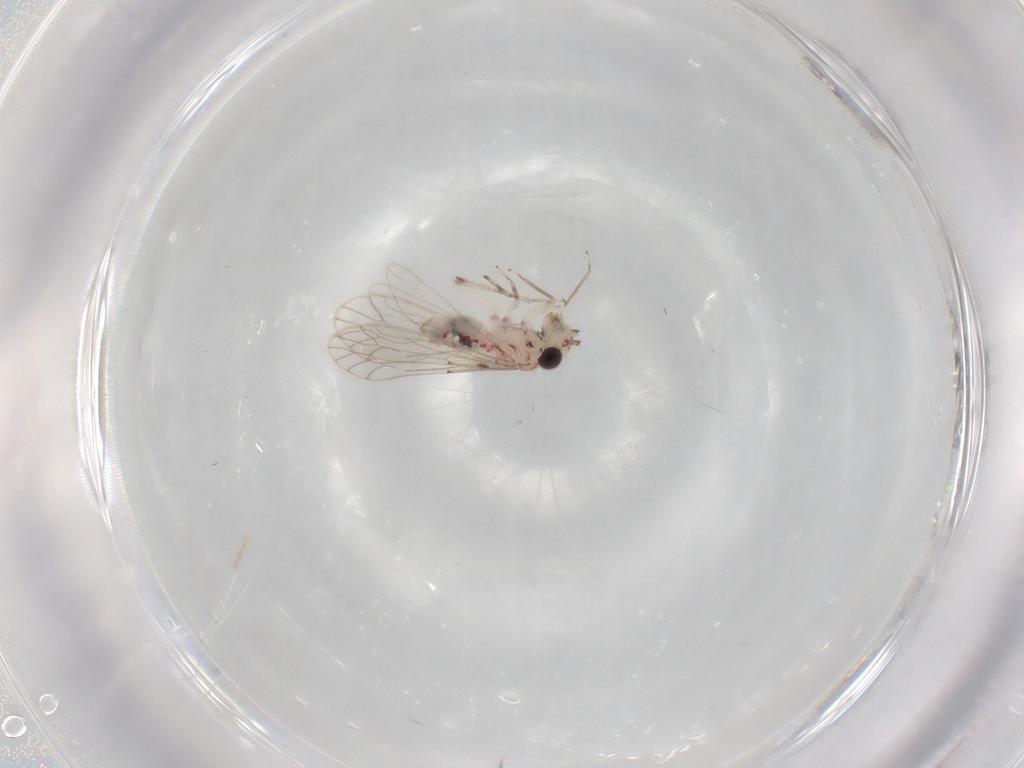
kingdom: Animalia
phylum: Arthropoda
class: Insecta
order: Psocodea
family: Caeciliusidae
